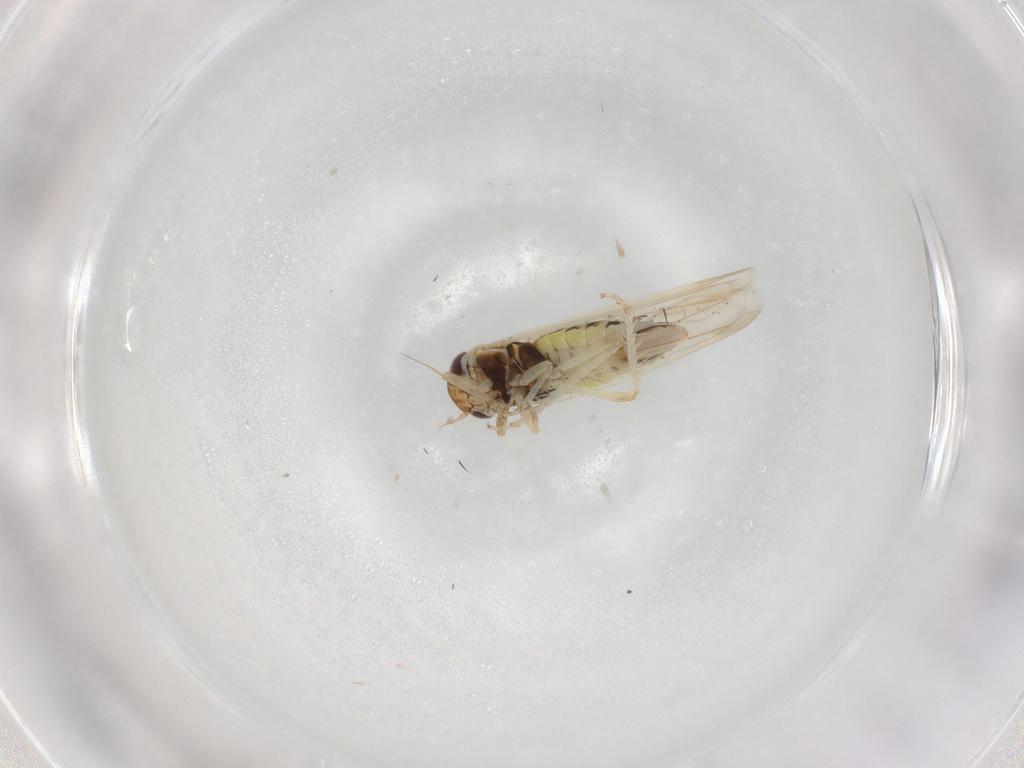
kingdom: Animalia
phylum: Arthropoda
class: Insecta
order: Hemiptera
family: Cicadellidae
